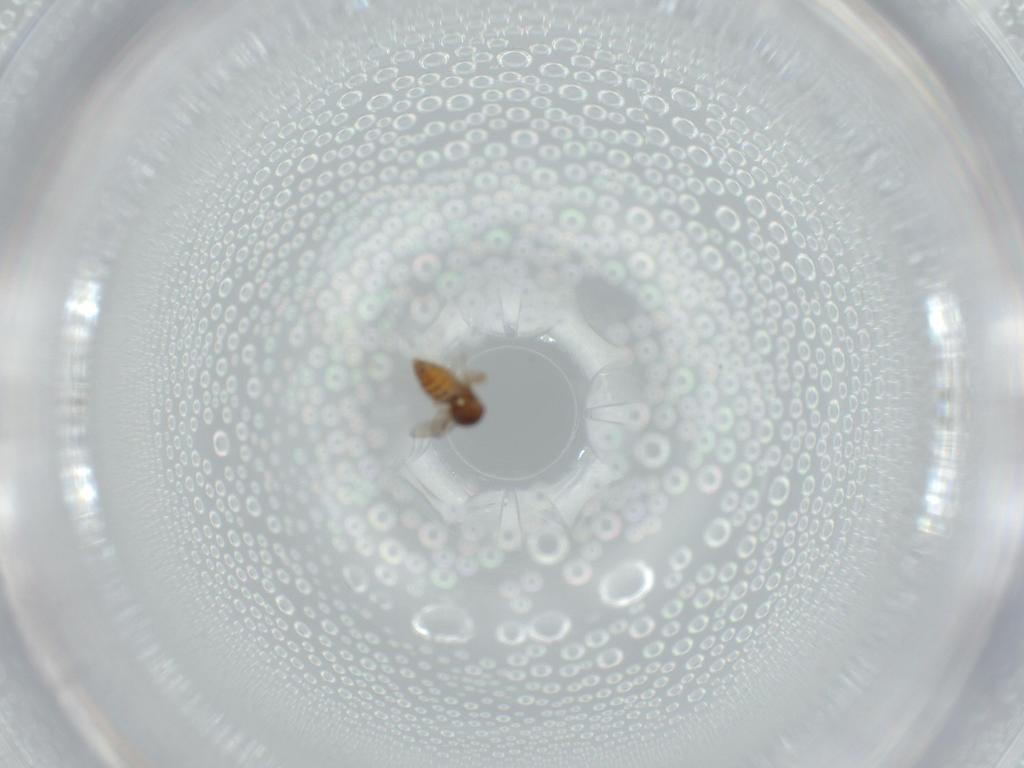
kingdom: Animalia
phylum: Arthropoda
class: Insecta
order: Diptera
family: Ceratopogonidae
